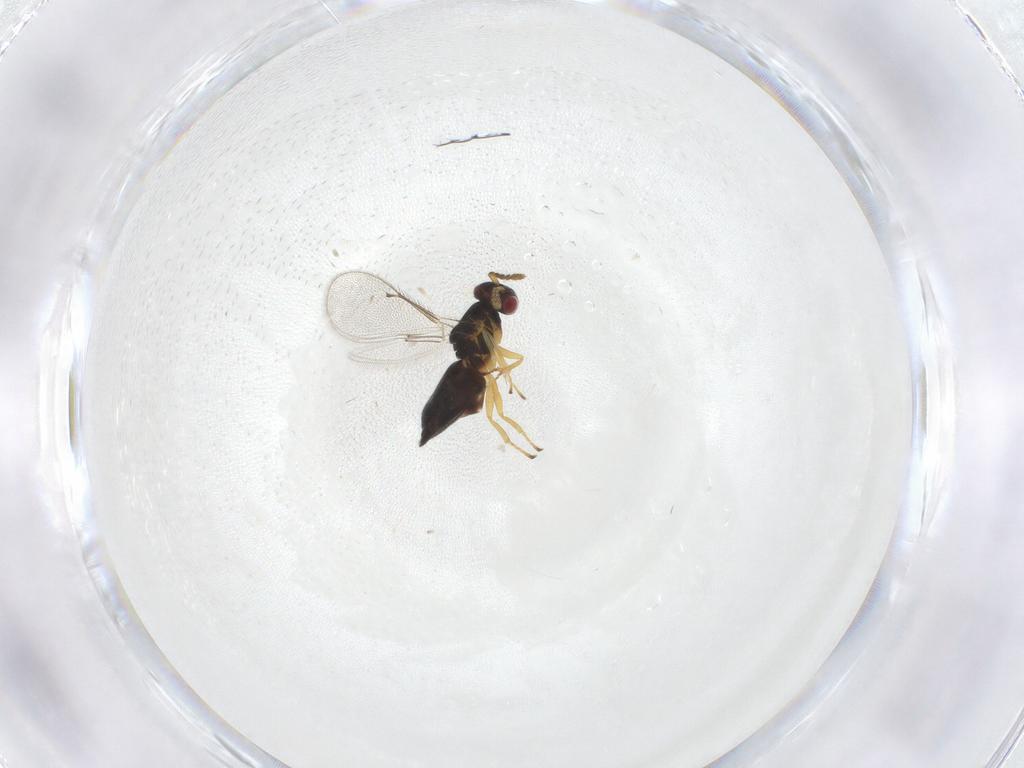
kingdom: Animalia
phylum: Arthropoda
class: Insecta
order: Hymenoptera
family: Eulophidae
